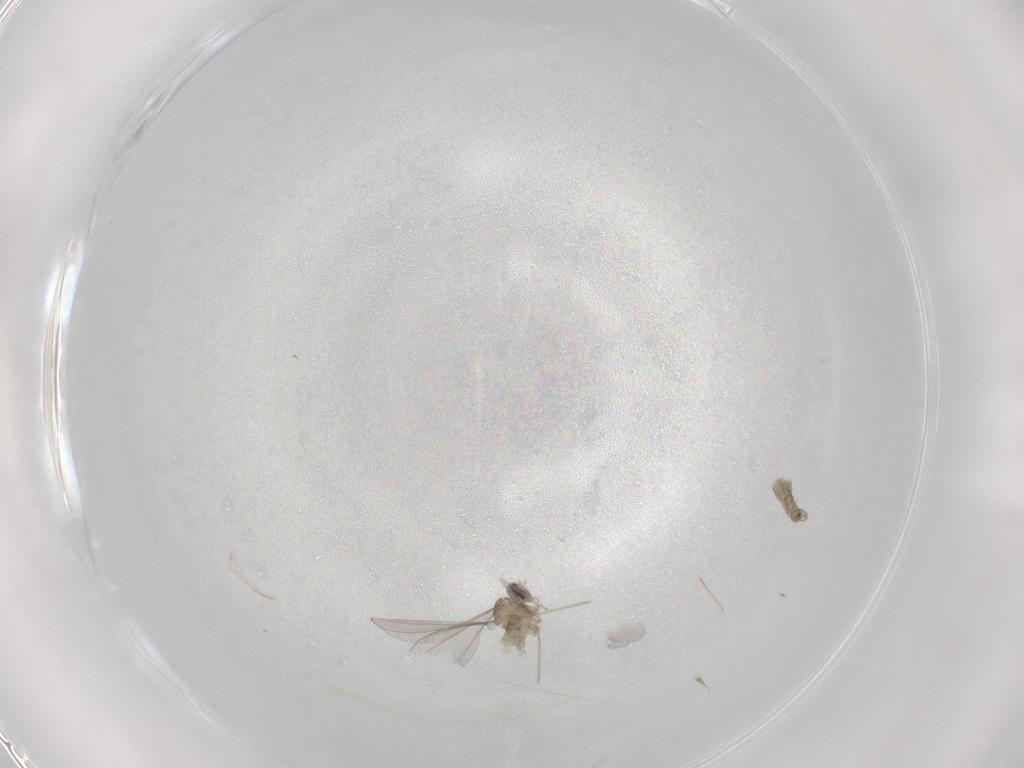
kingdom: Animalia
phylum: Arthropoda
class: Insecta
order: Diptera
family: Cecidomyiidae
